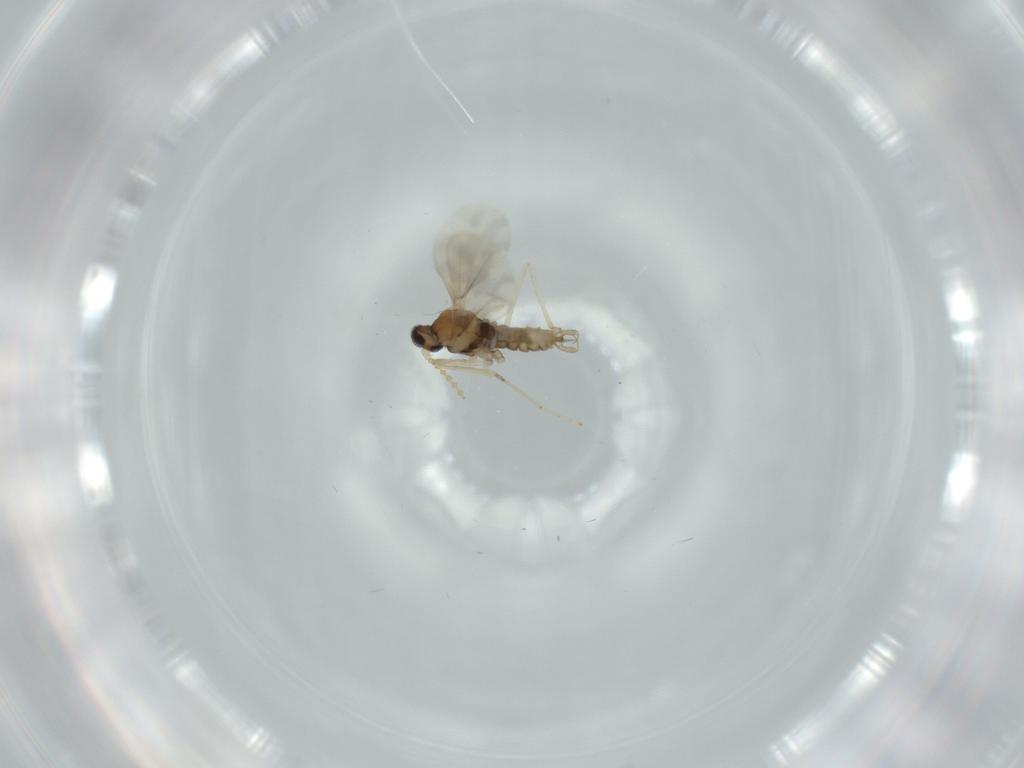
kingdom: Animalia
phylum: Arthropoda
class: Insecta
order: Diptera
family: Cecidomyiidae
